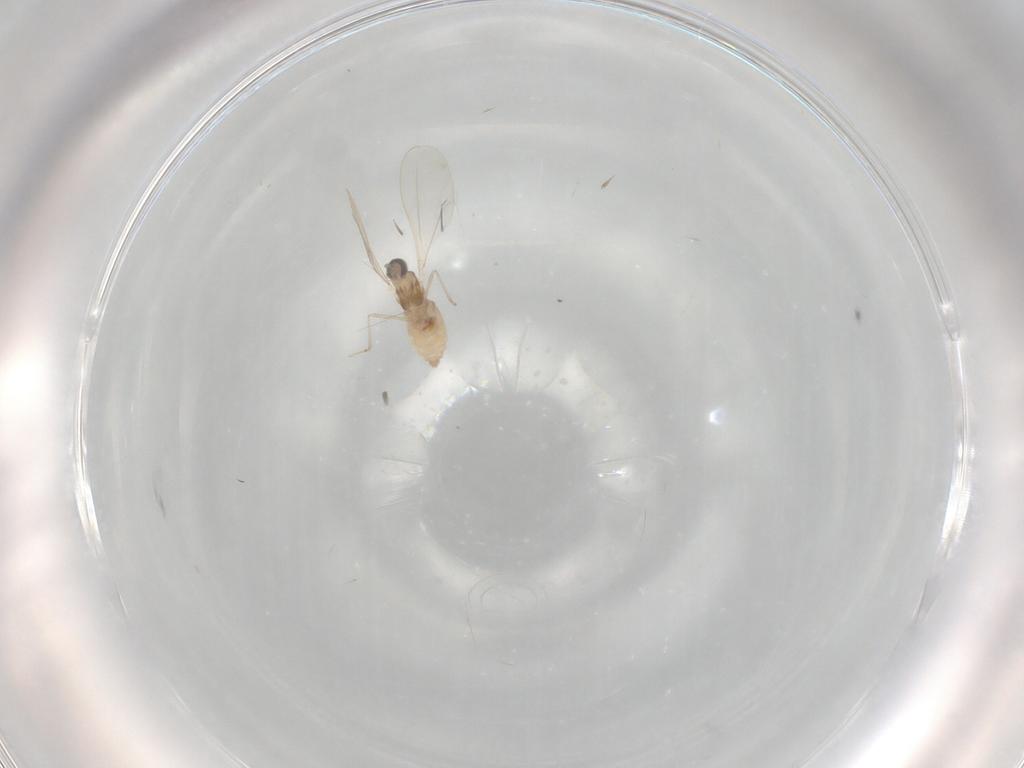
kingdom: Animalia
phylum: Arthropoda
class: Insecta
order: Diptera
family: Cecidomyiidae
